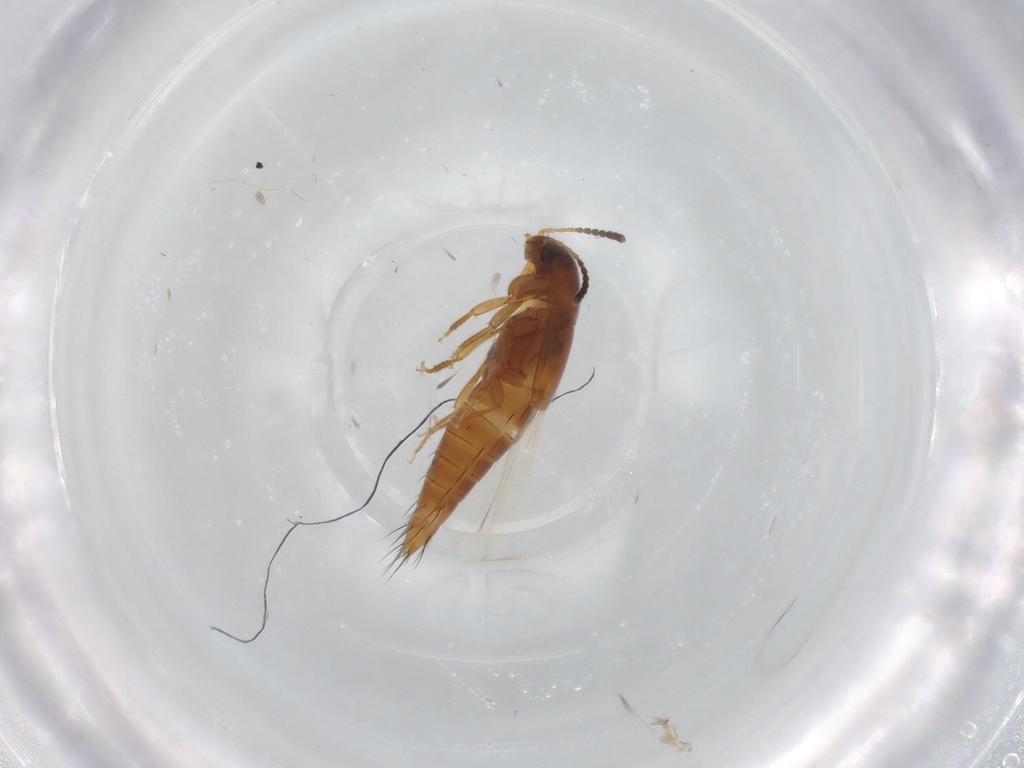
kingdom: Animalia
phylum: Arthropoda
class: Insecta
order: Coleoptera
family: Staphylinidae
